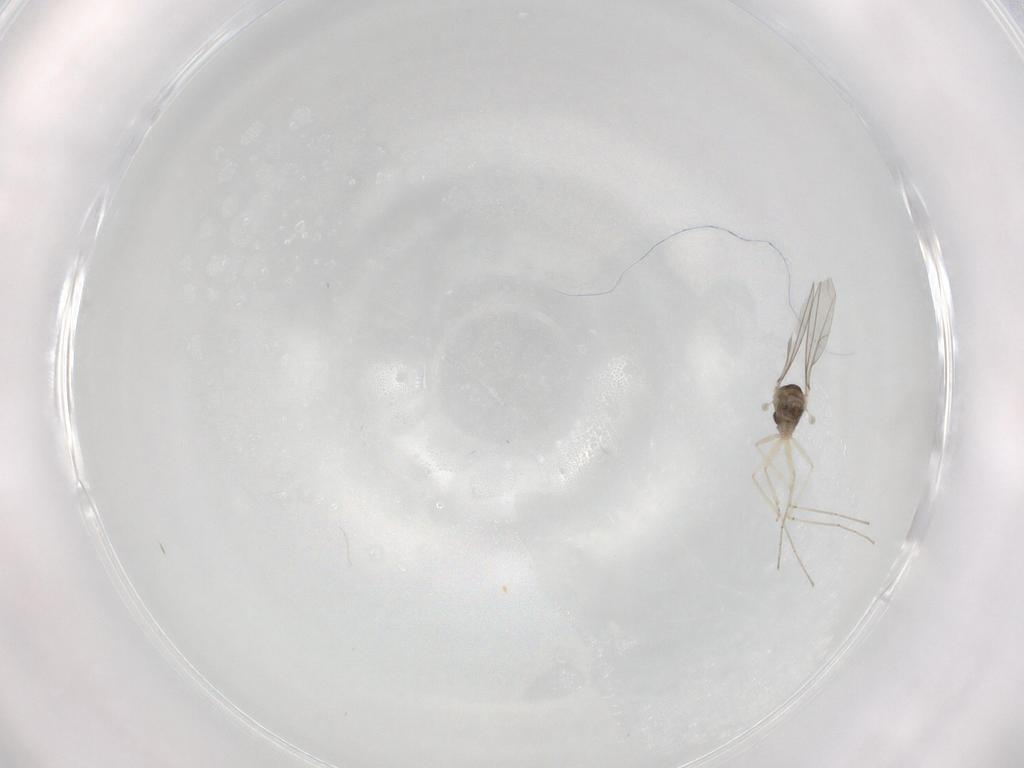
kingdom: Animalia
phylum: Arthropoda
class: Insecta
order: Diptera
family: Cecidomyiidae
